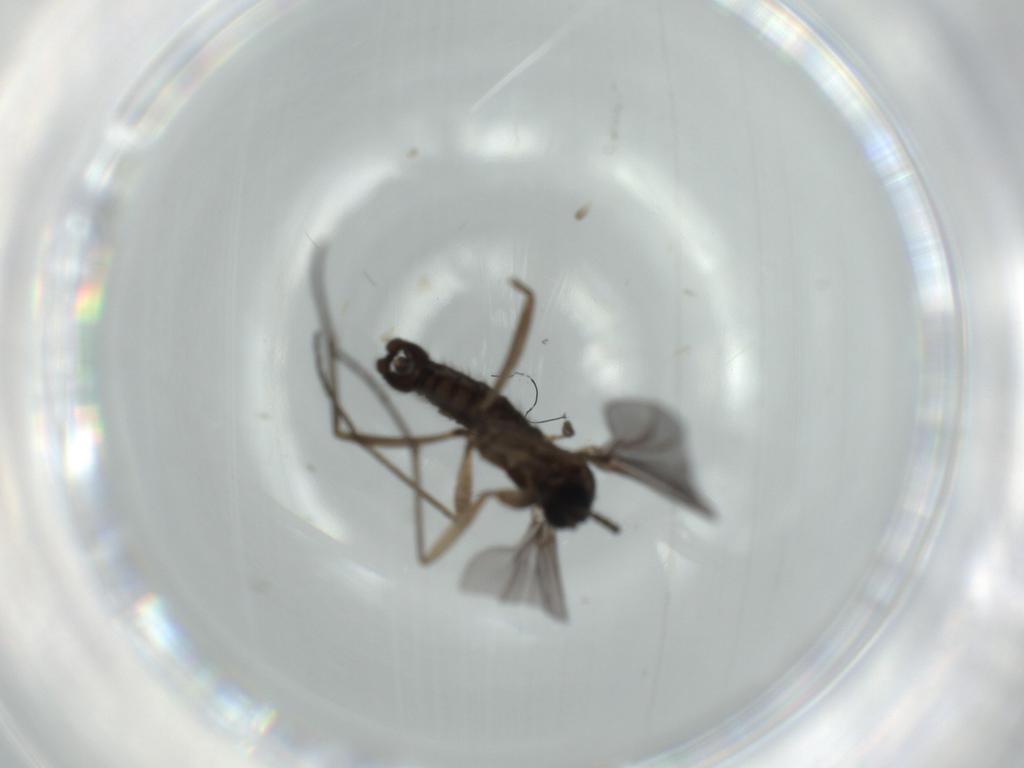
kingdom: Animalia
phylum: Arthropoda
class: Insecta
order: Diptera
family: Sciaridae
